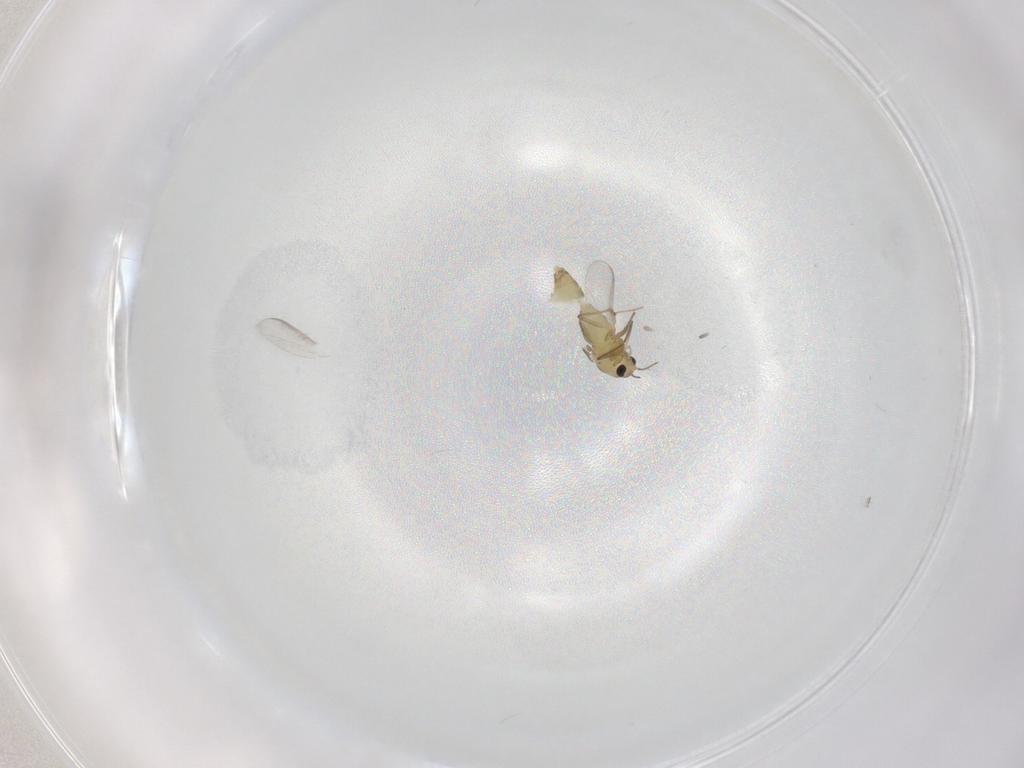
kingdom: Animalia
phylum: Arthropoda
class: Insecta
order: Diptera
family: Chironomidae
